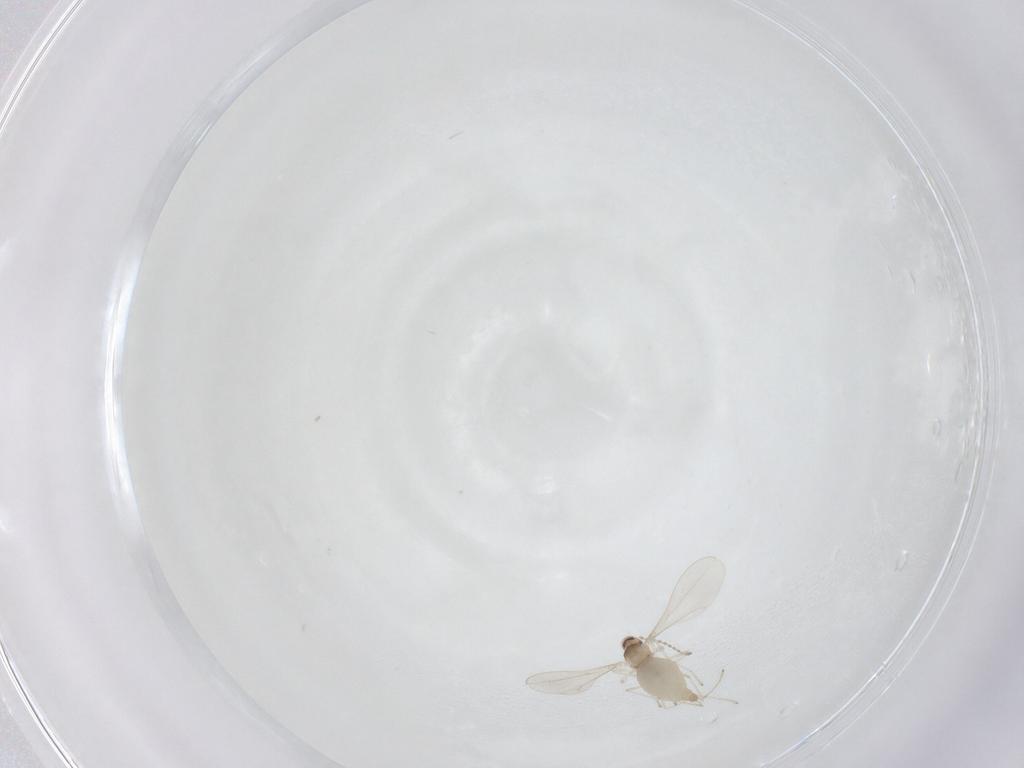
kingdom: Animalia
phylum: Arthropoda
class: Insecta
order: Diptera
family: Cecidomyiidae
